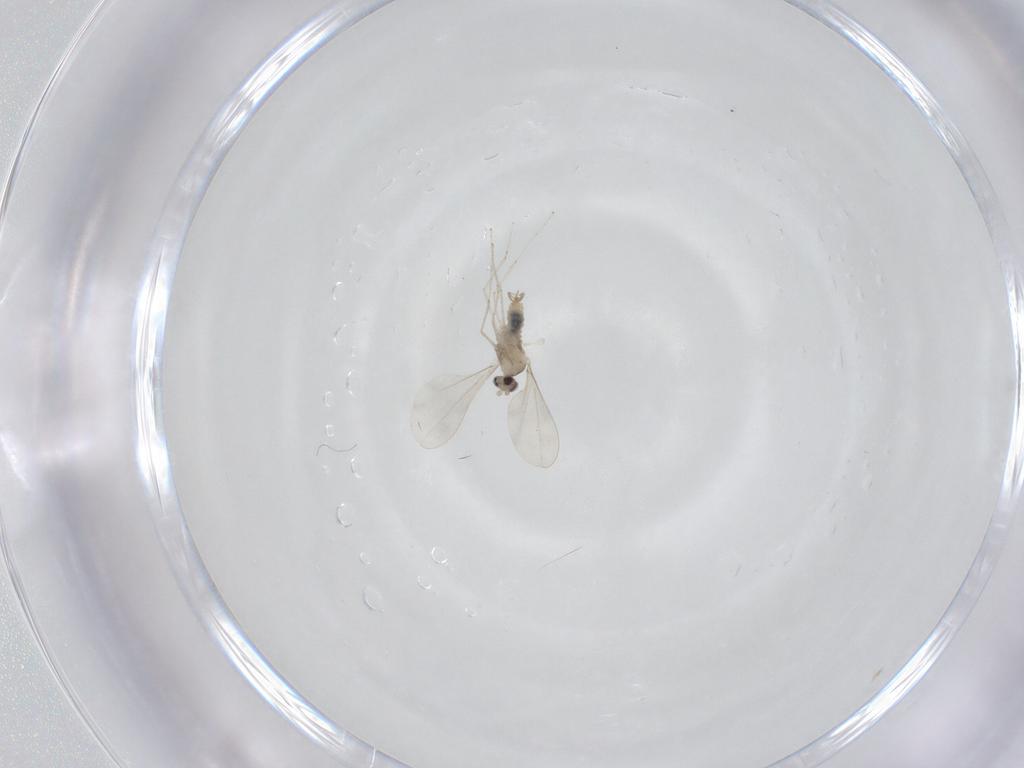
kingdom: Animalia
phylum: Arthropoda
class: Insecta
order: Diptera
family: Cecidomyiidae
